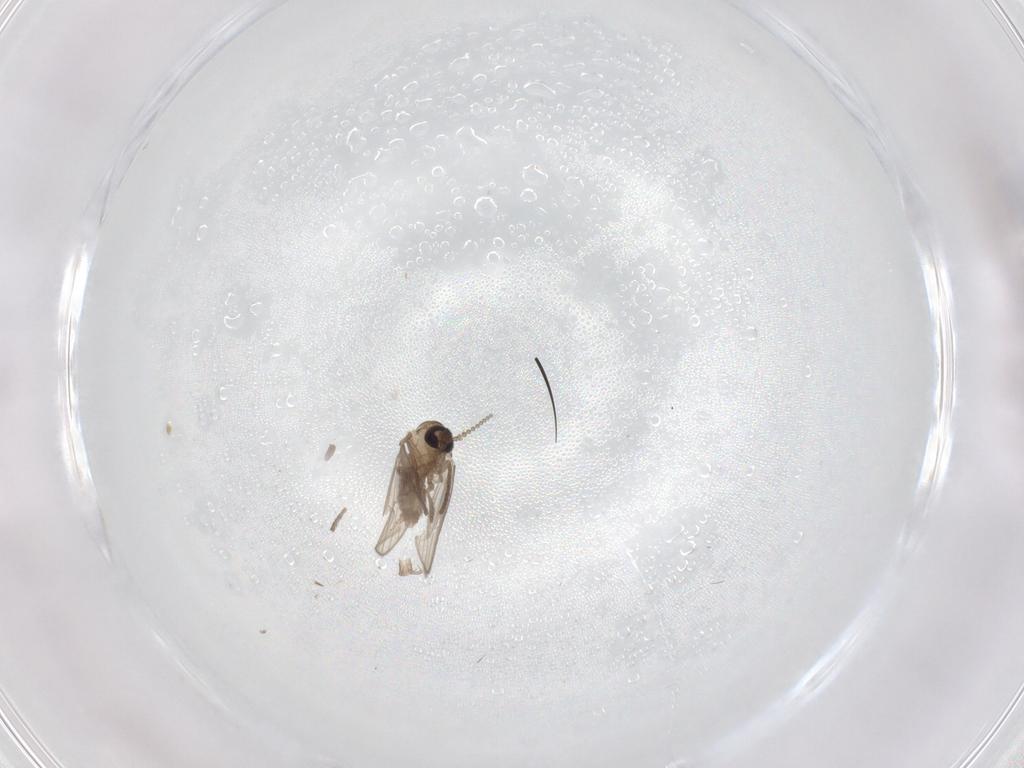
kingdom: Animalia
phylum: Arthropoda
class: Insecta
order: Diptera
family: Psychodidae
